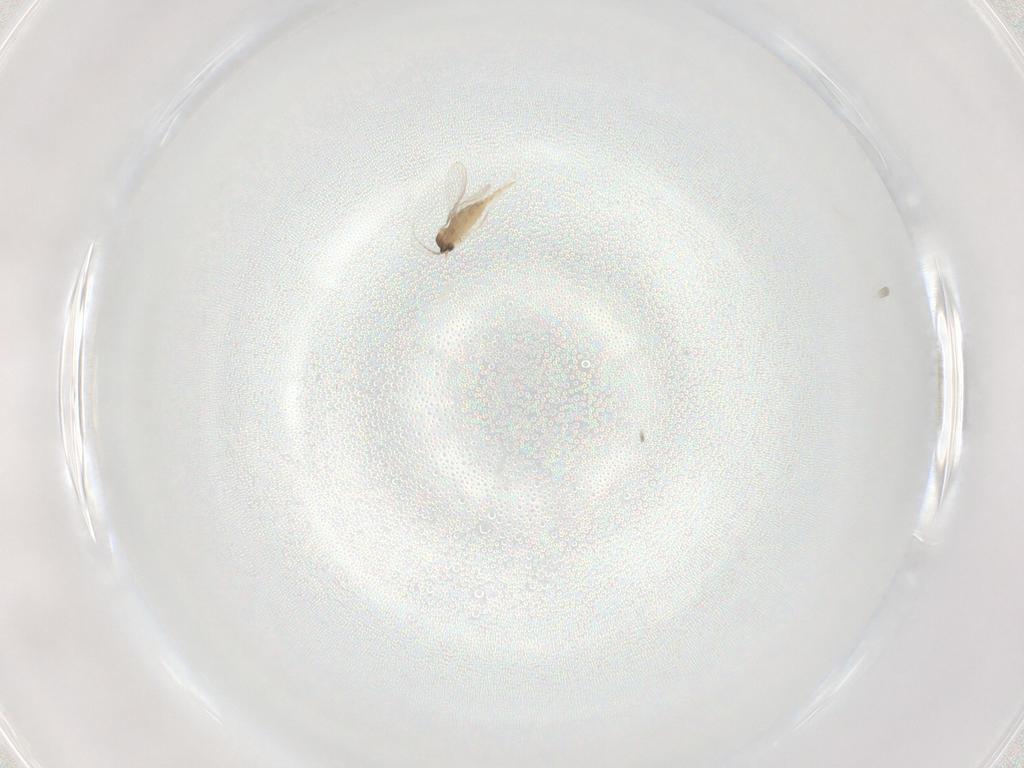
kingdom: Animalia
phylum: Arthropoda
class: Insecta
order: Diptera
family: Cecidomyiidae
